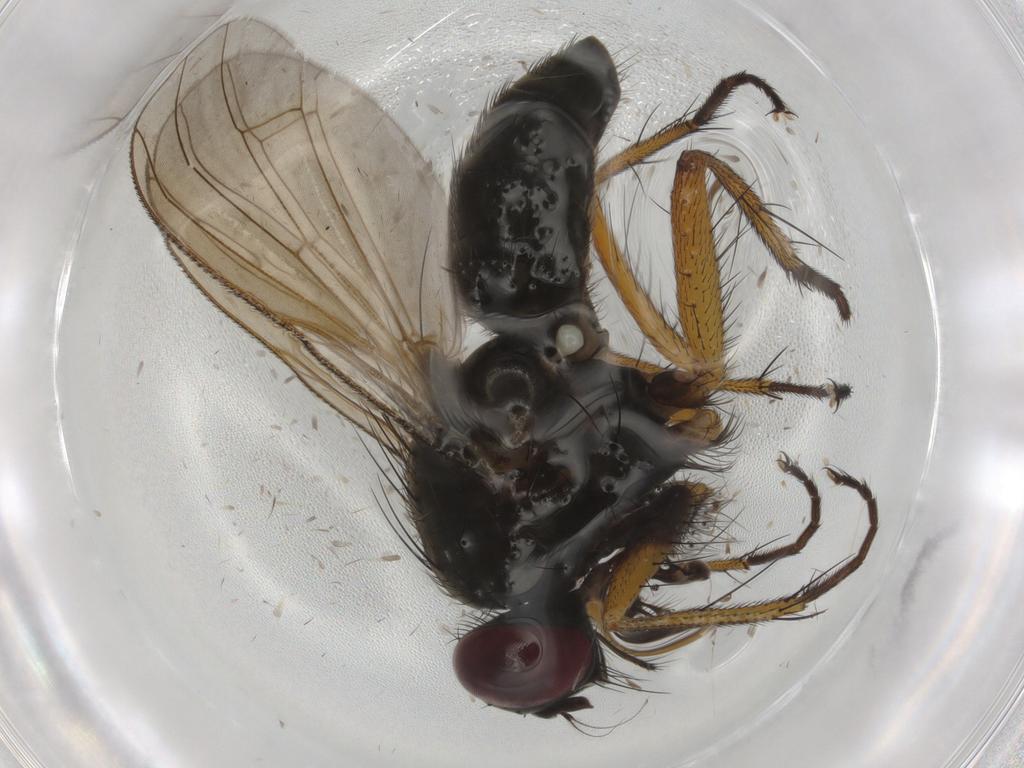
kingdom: Animalia
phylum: Arthropoda
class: Insecta
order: Diptera
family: Muscidae
